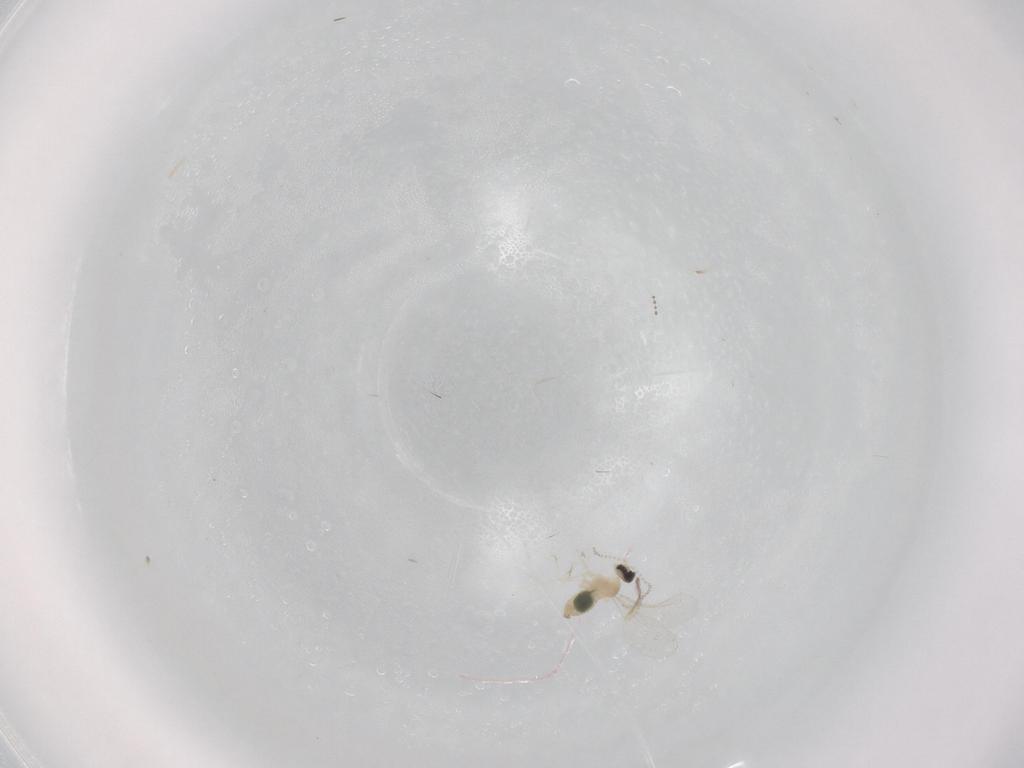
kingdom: Animalia
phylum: Arthropoda
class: Insecta
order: Diptera
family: Cecidomyiidae
